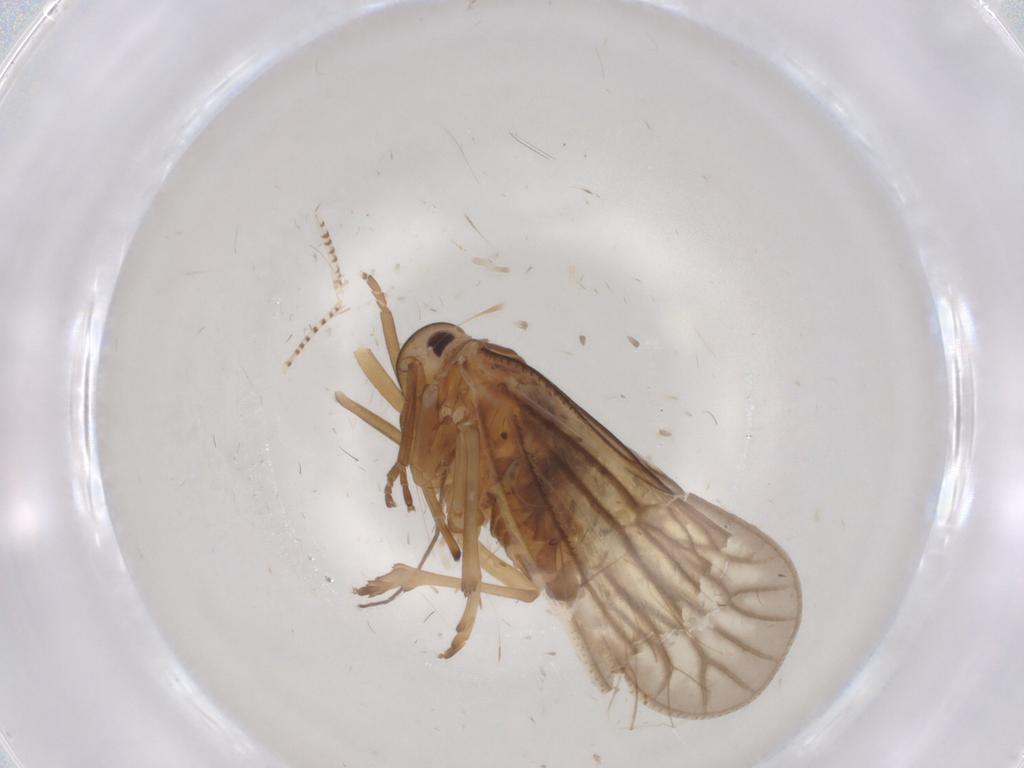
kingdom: Animalia
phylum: Arthropoda
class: Insecta
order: Hemiptera
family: Meenoplidae
